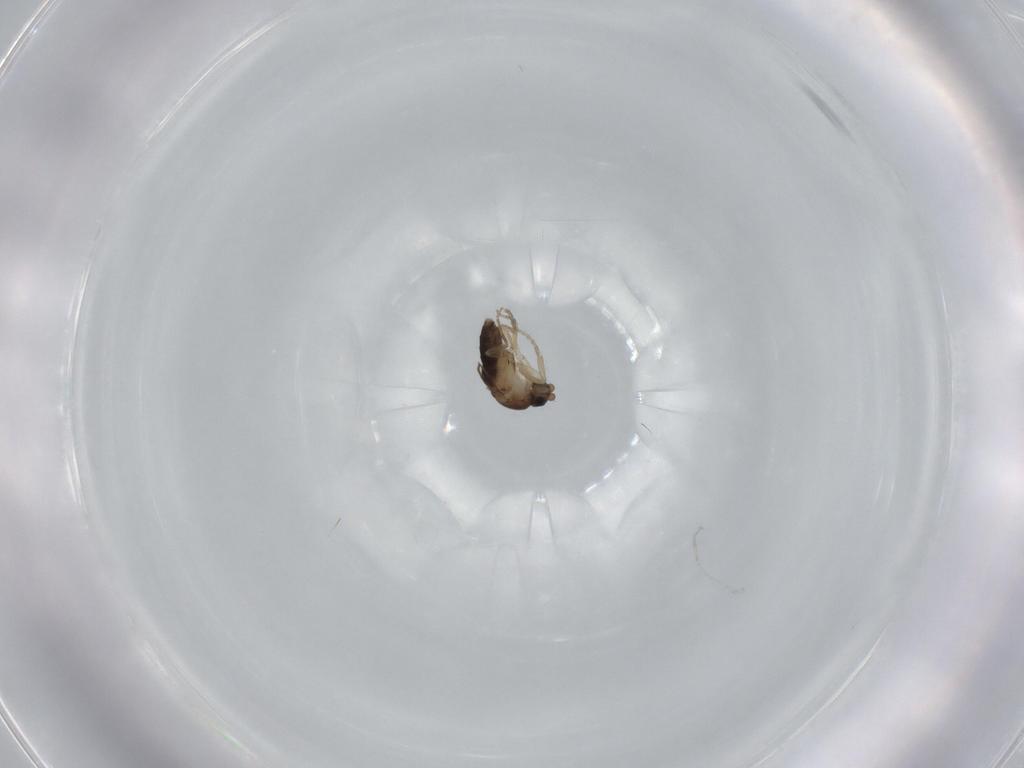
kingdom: Animalia
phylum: Arthropoda
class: Insecta
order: Diptera
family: Phoridae
